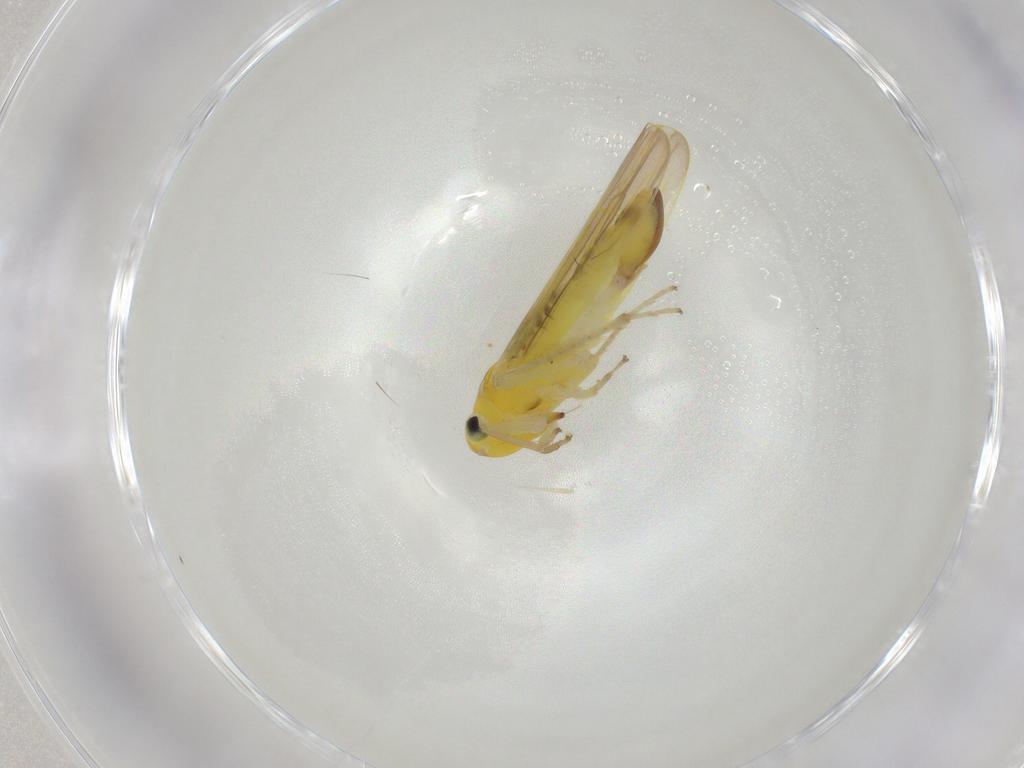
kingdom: Animalia
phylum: Arthropoda
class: Insecta
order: Hemiptera
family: Cicadellidae
